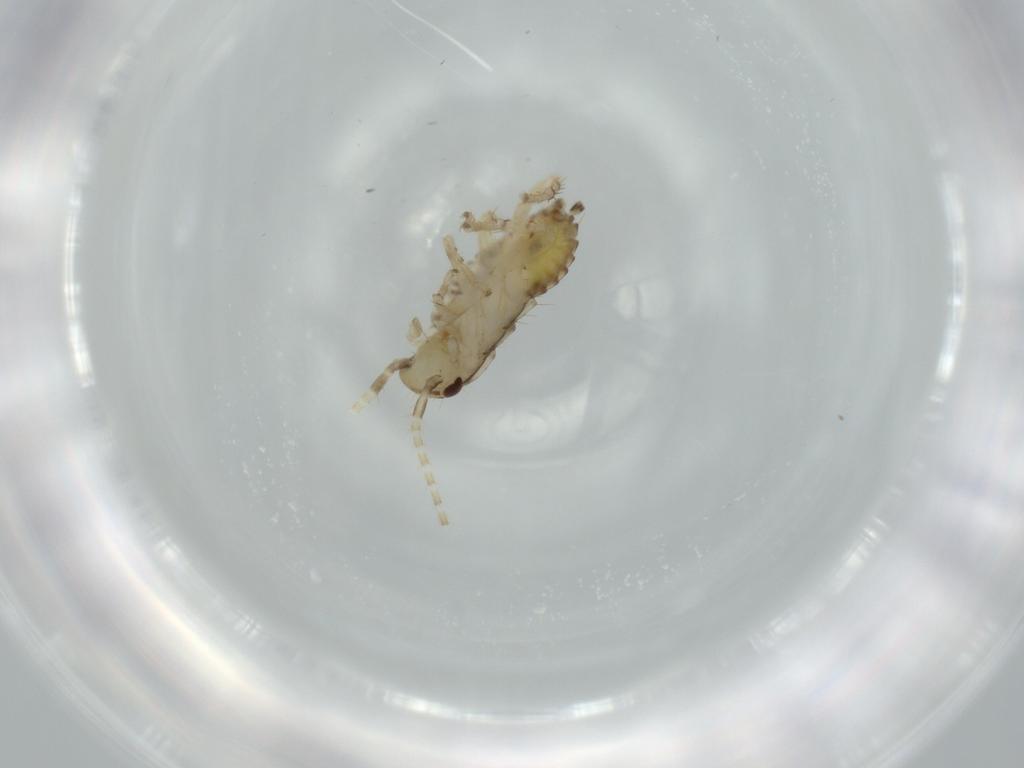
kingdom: Animalia
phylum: Arthropoda
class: Insecta
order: Blattodea
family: Ectobiidae
